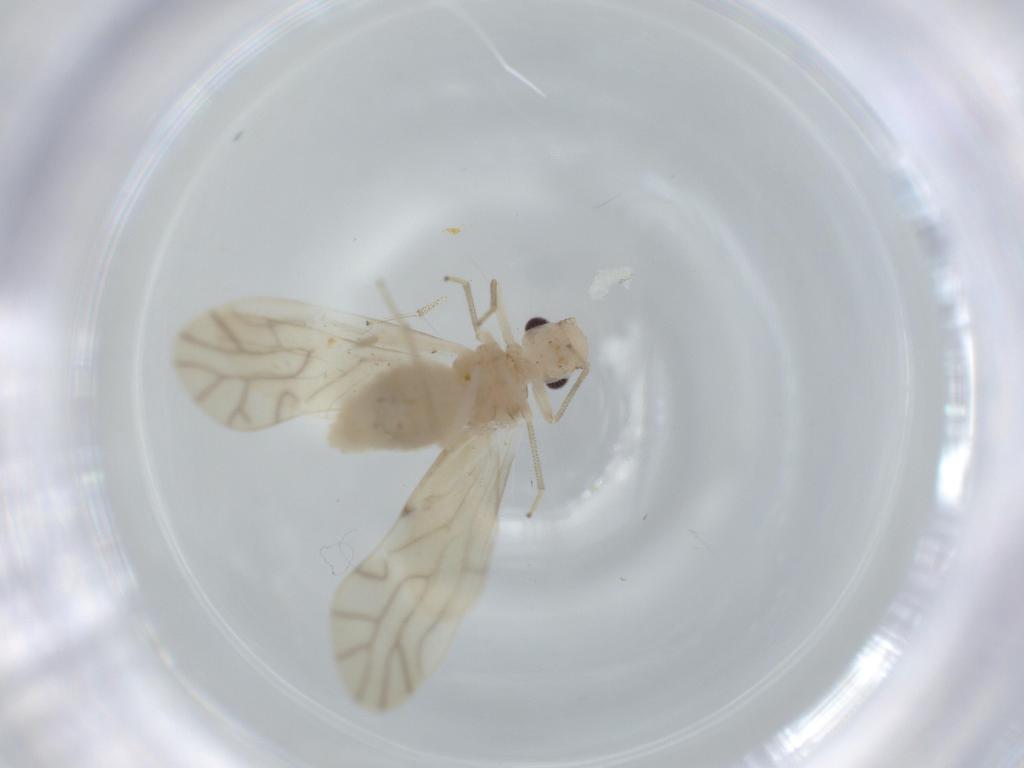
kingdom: Animalia
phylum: Arthropoda
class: Insecta
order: Psocodea
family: Caeciliusidae
